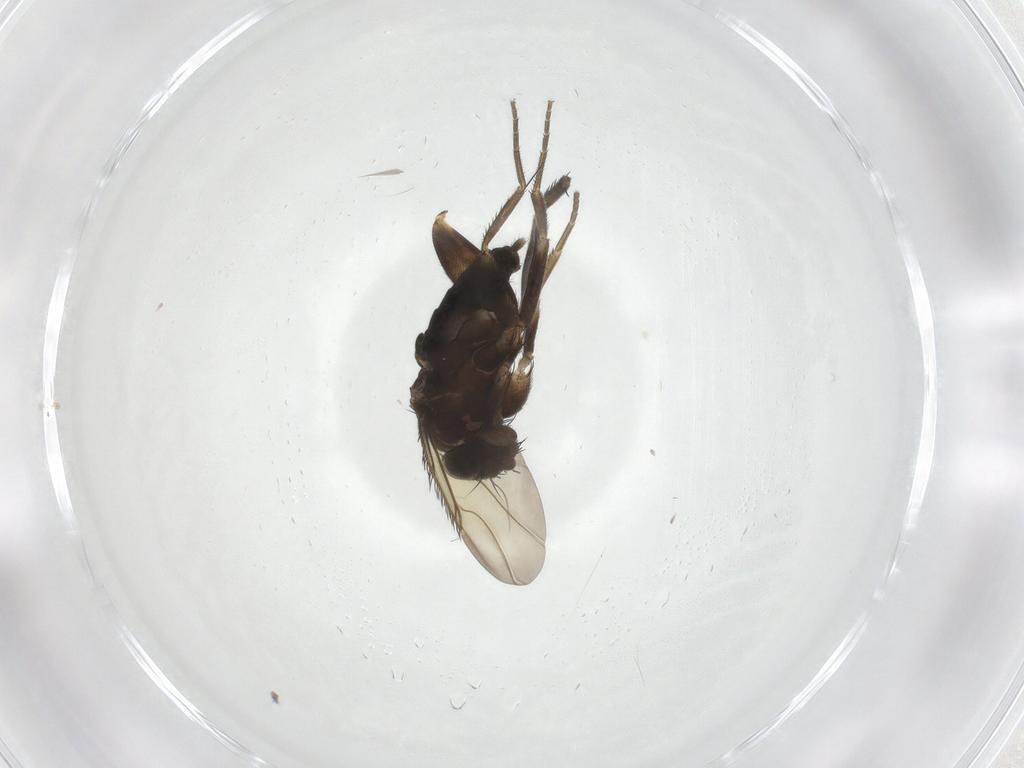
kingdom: Animalia
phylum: Arthropoda
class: Insecta
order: Diptera
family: Phoridae
